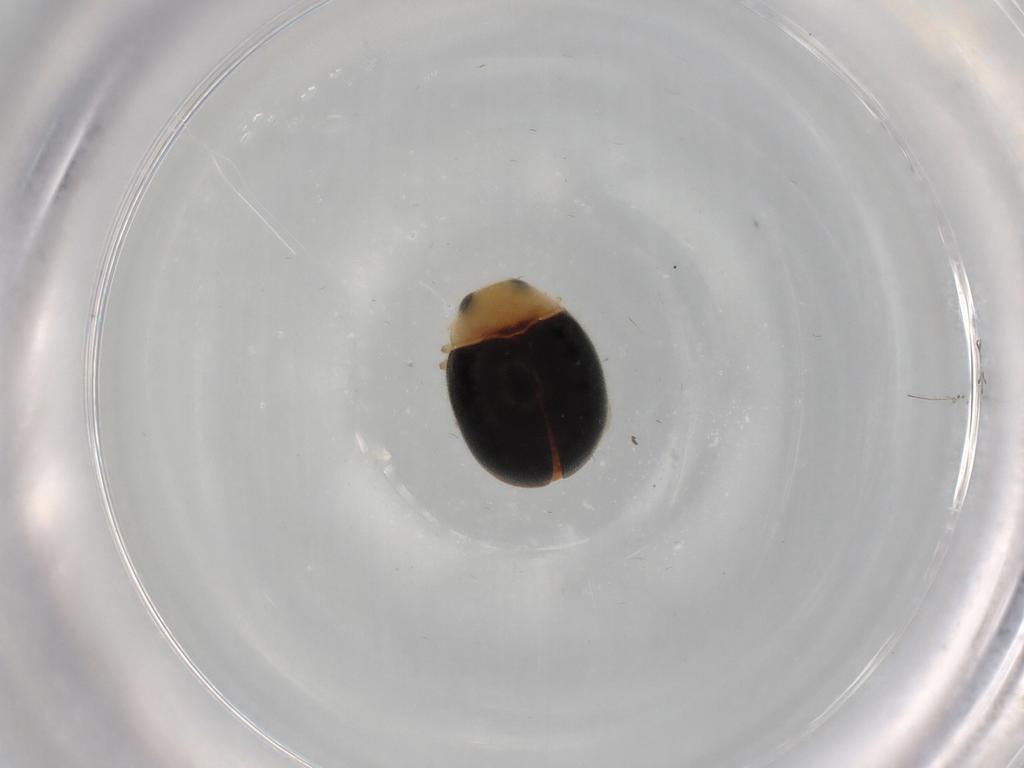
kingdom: Animalia
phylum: Arthropoda
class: Insecta
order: Coleoptera
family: Coccinellidae
